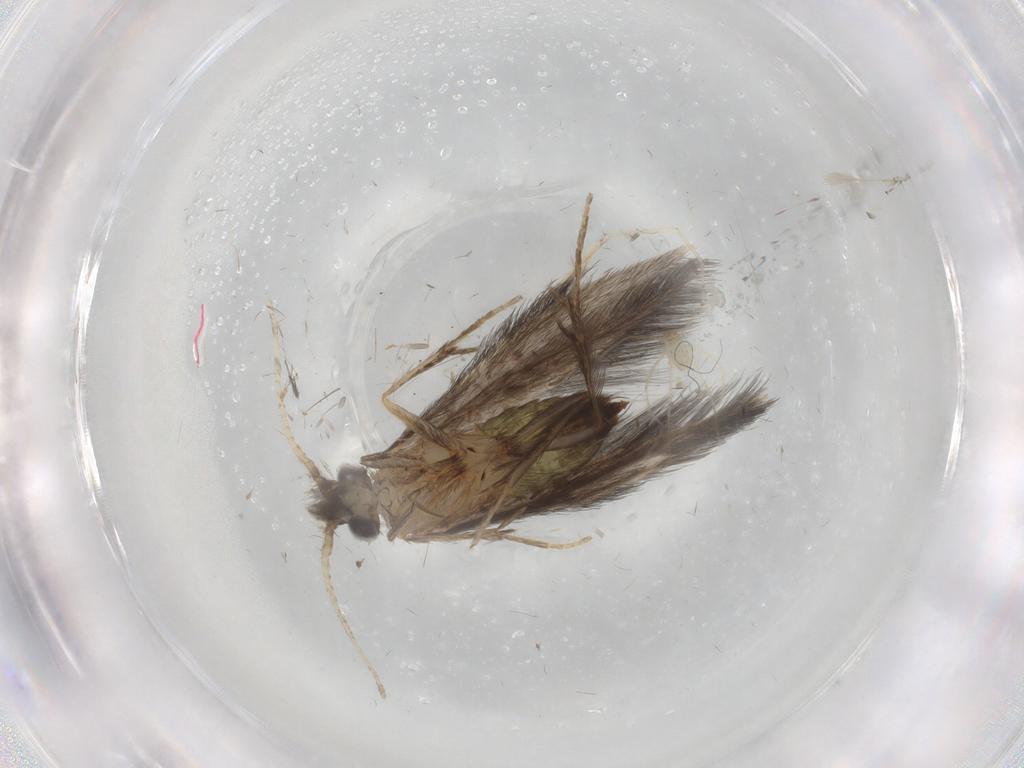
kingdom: Animalia
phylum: Arthropoda
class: Insecta
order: Trichoptera
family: Hydroptilidae
